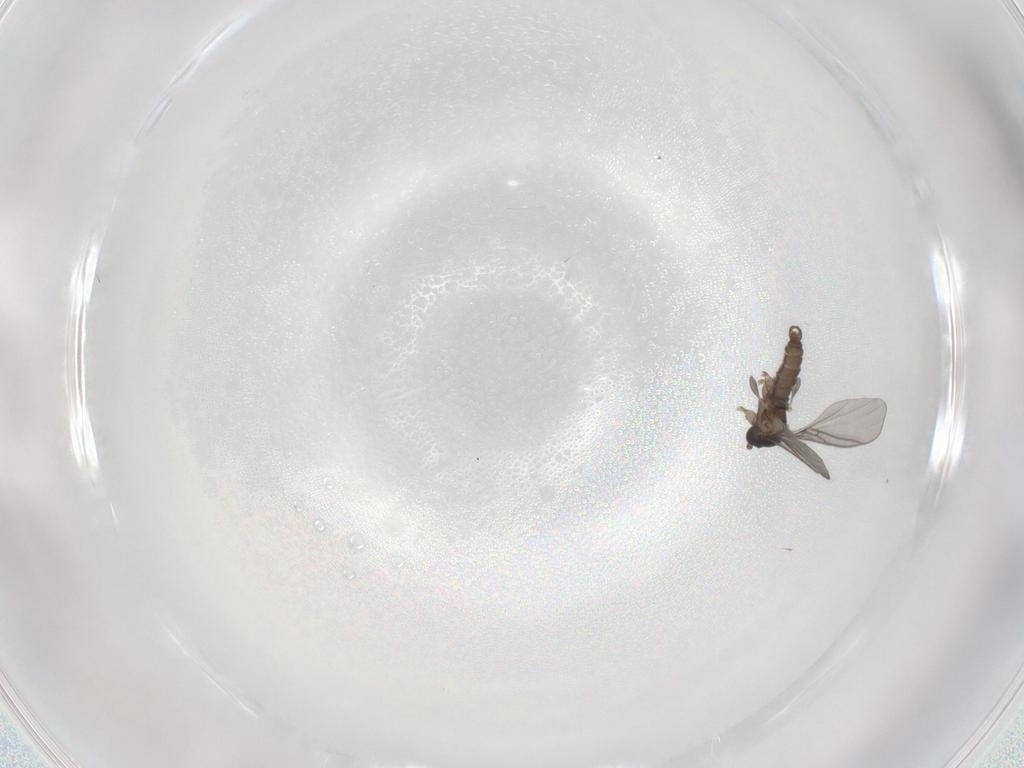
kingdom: Animalia
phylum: Arthropoda
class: Insecta
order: Diptera
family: Sciaridae
